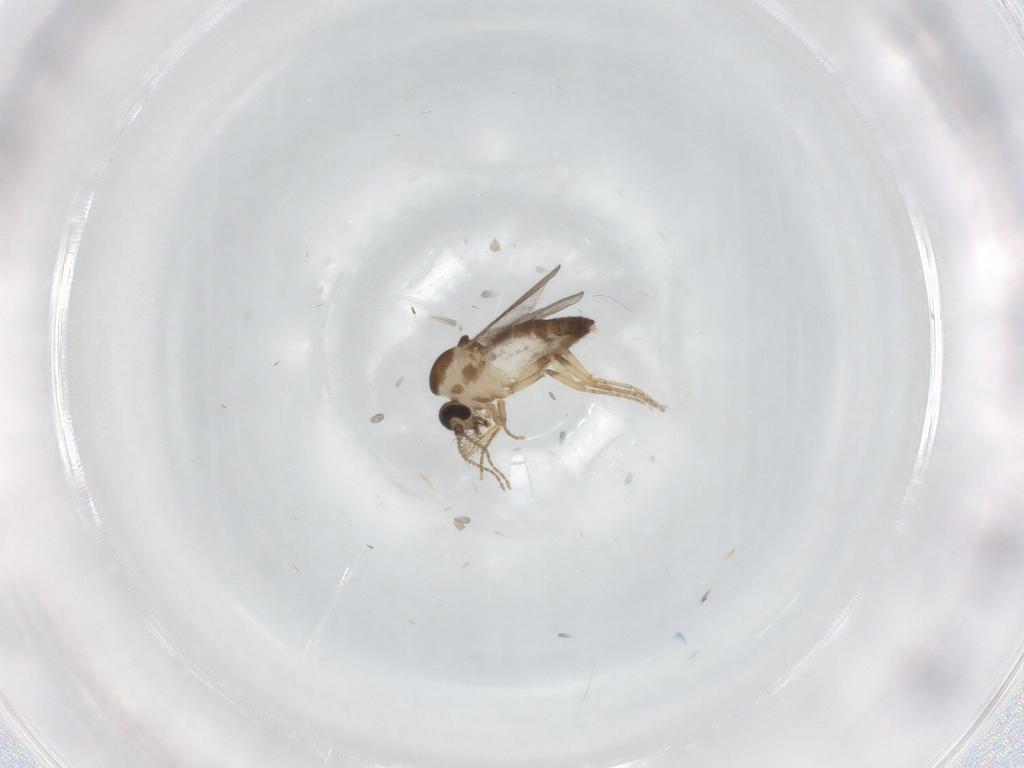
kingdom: Animalia
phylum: Arthropoda
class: Insecta
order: Diptera
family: Ceratopogonidae
